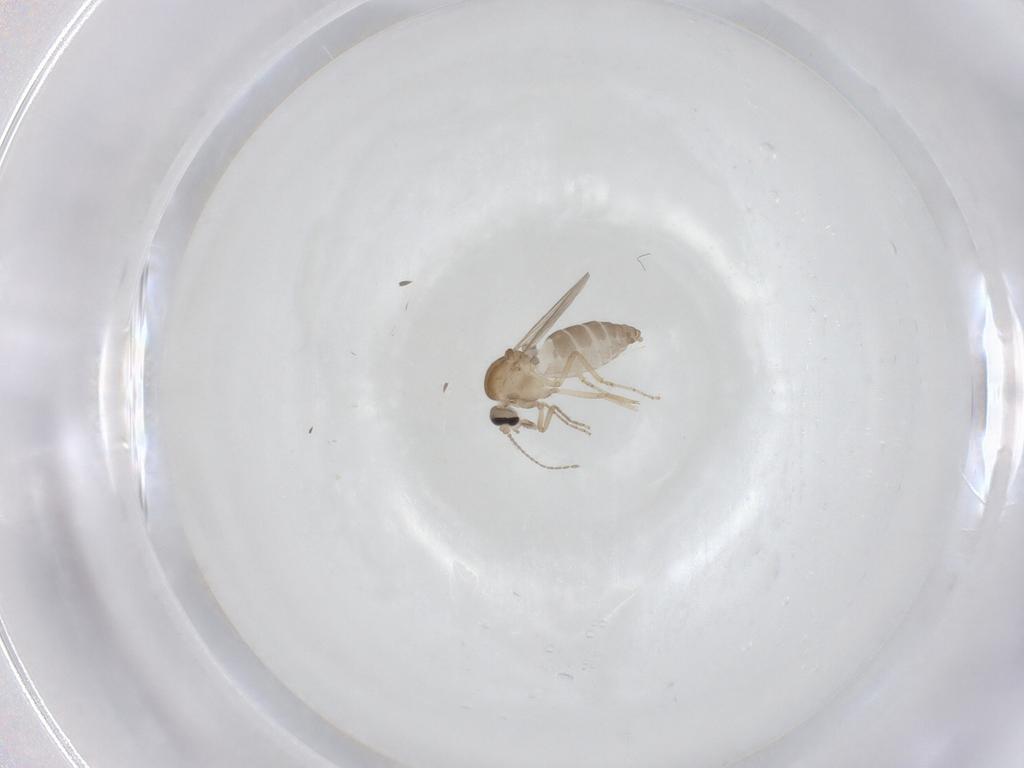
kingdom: Animalia
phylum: Arthropoda
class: Insecta
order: Diptera
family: Ceratopogonidae
